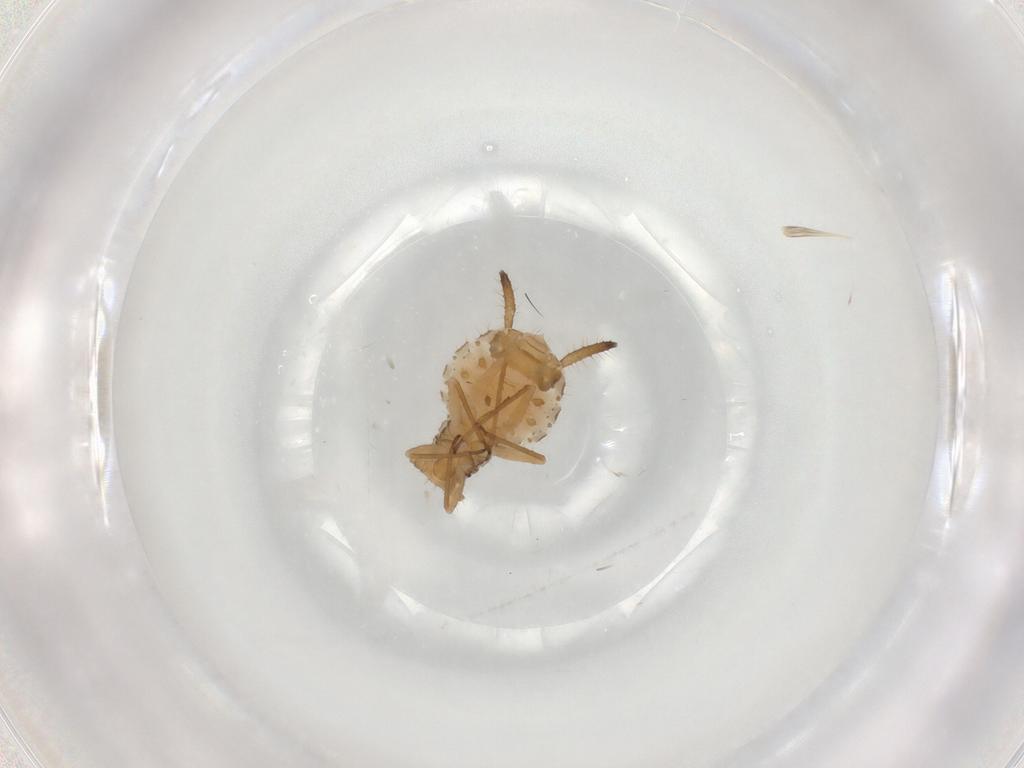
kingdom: Animalia
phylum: Arthropoda
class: Insecta
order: Hemiptera
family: Aphididae
